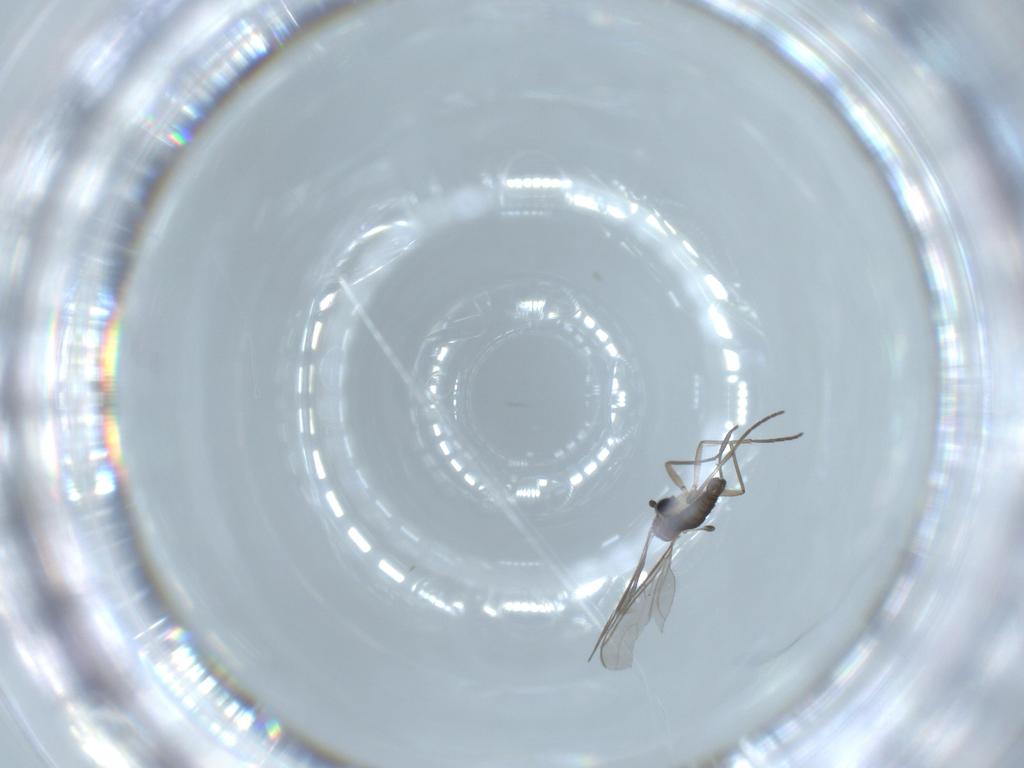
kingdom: Animalia
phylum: Arthropoda
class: Insecta
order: Diptera
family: Sciaridae
